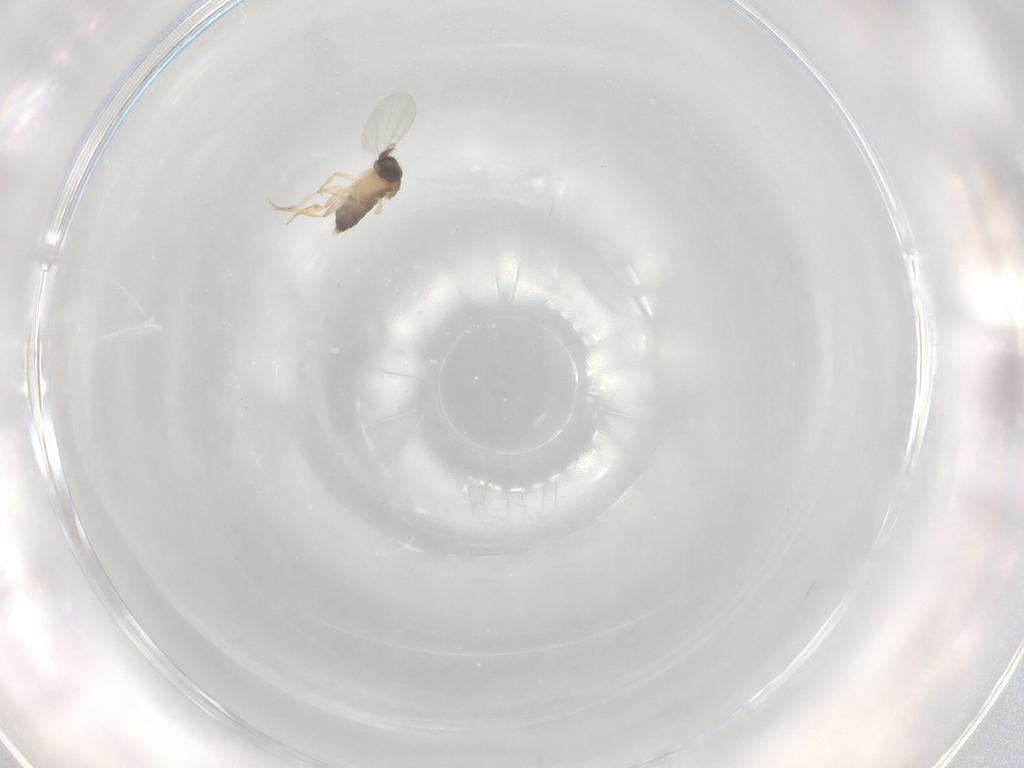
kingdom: Animalia
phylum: Arthropoda
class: Insecta
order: Diptera
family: Phoridae
